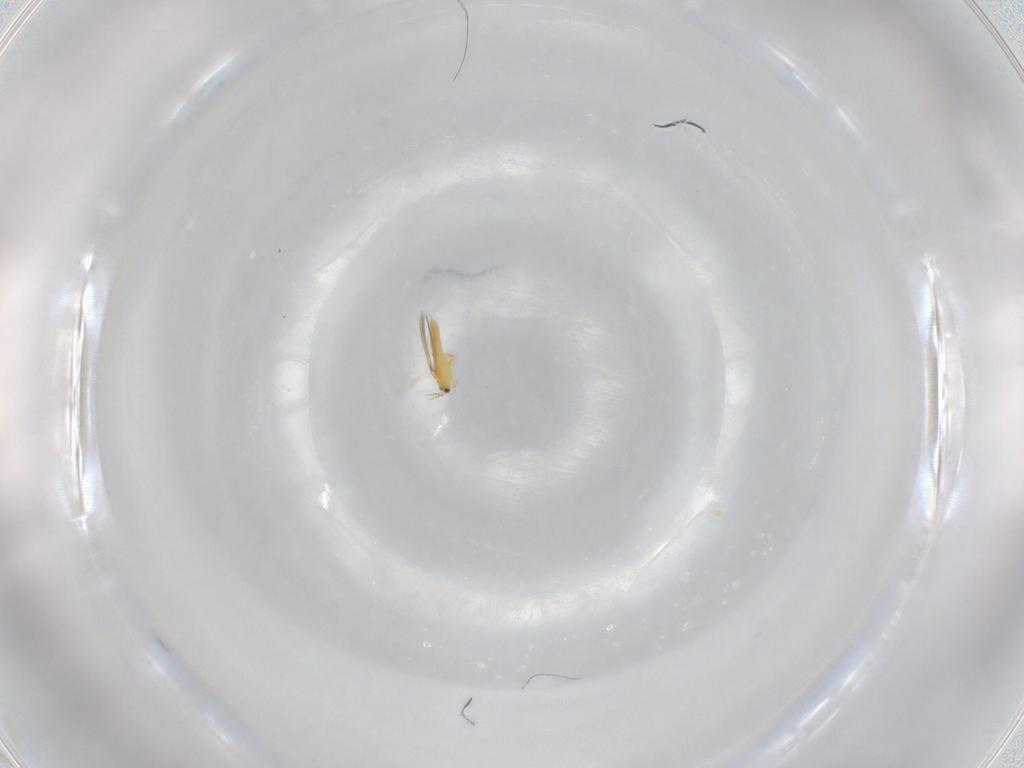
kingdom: Animalia
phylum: Arthropoda
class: Insecta
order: Thysanoptera
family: Thripidae
